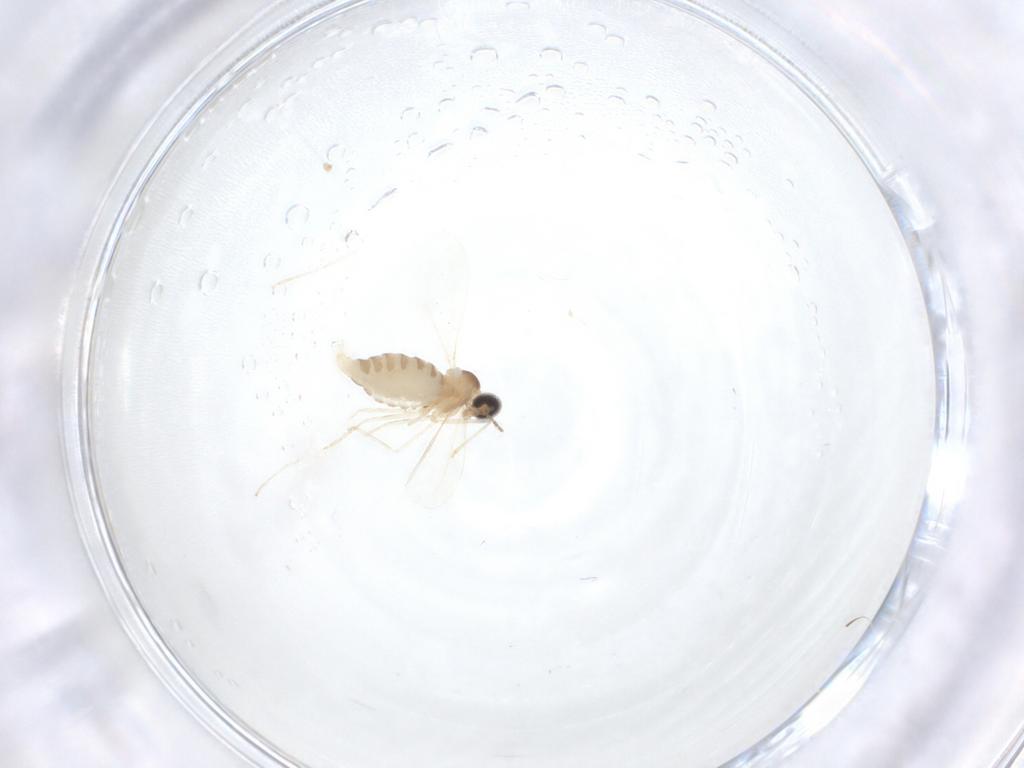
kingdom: Animalia
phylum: Arthropoda
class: Insecta
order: Diptera
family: Cecidomyiidae
